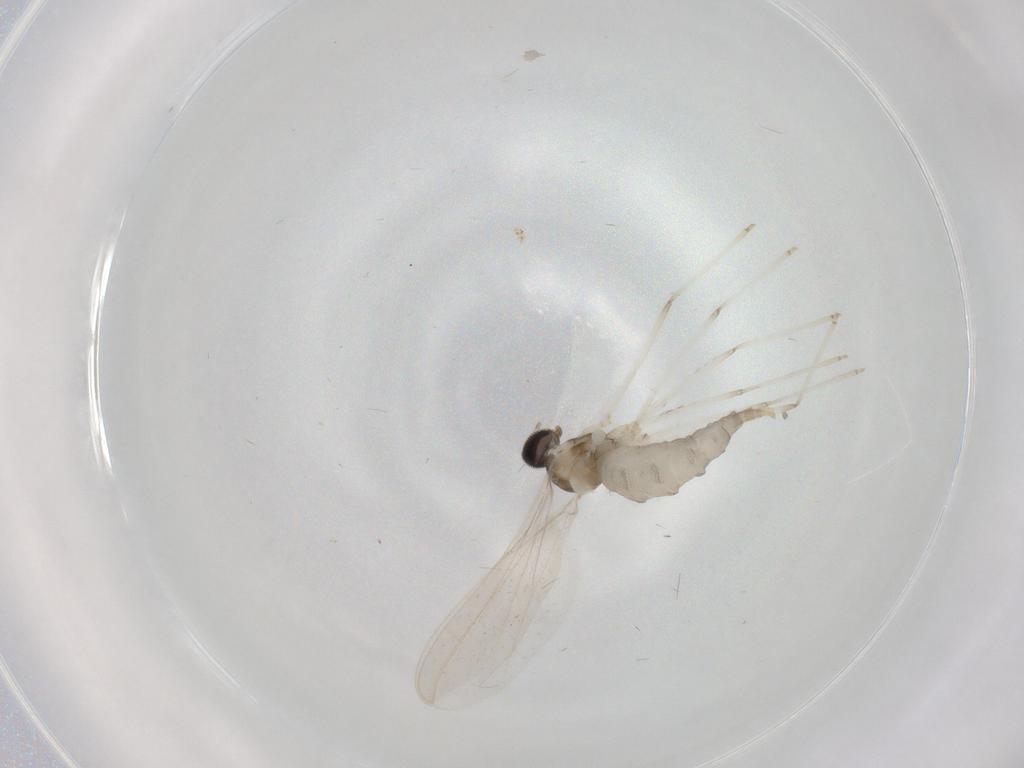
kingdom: Animalia
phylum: Arthropoda
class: Insecta
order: Diptera
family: Cecidomyiidae
